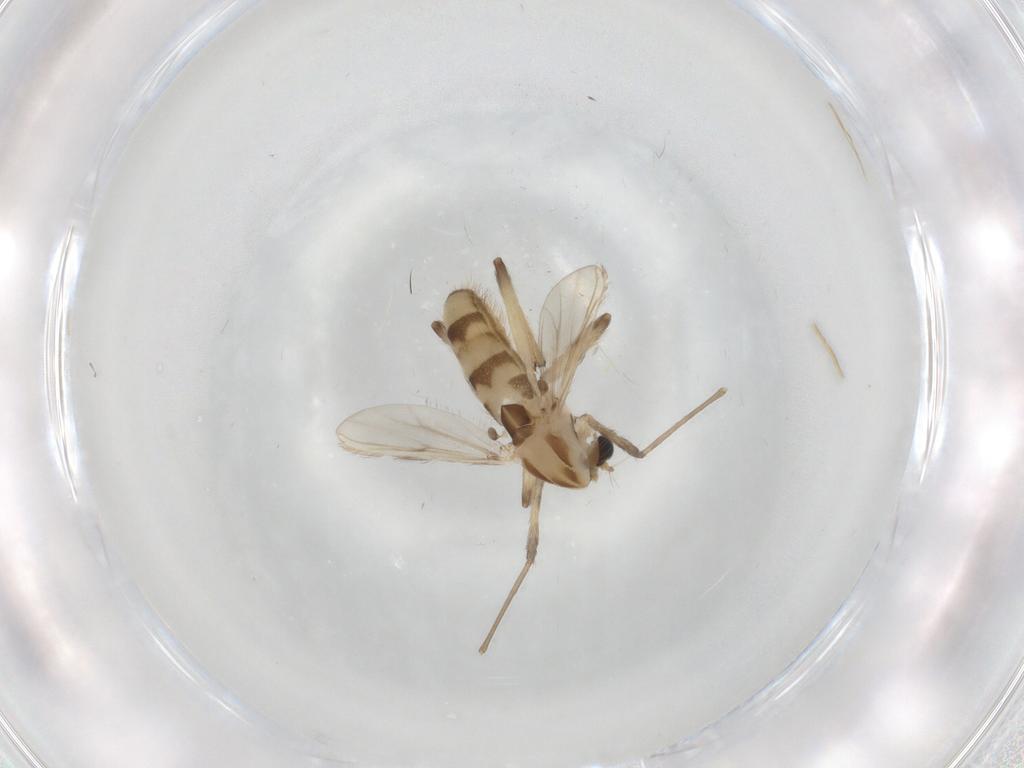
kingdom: Animalia
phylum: Arthropoda
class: Insecta
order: Diptera
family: Chironomidae
